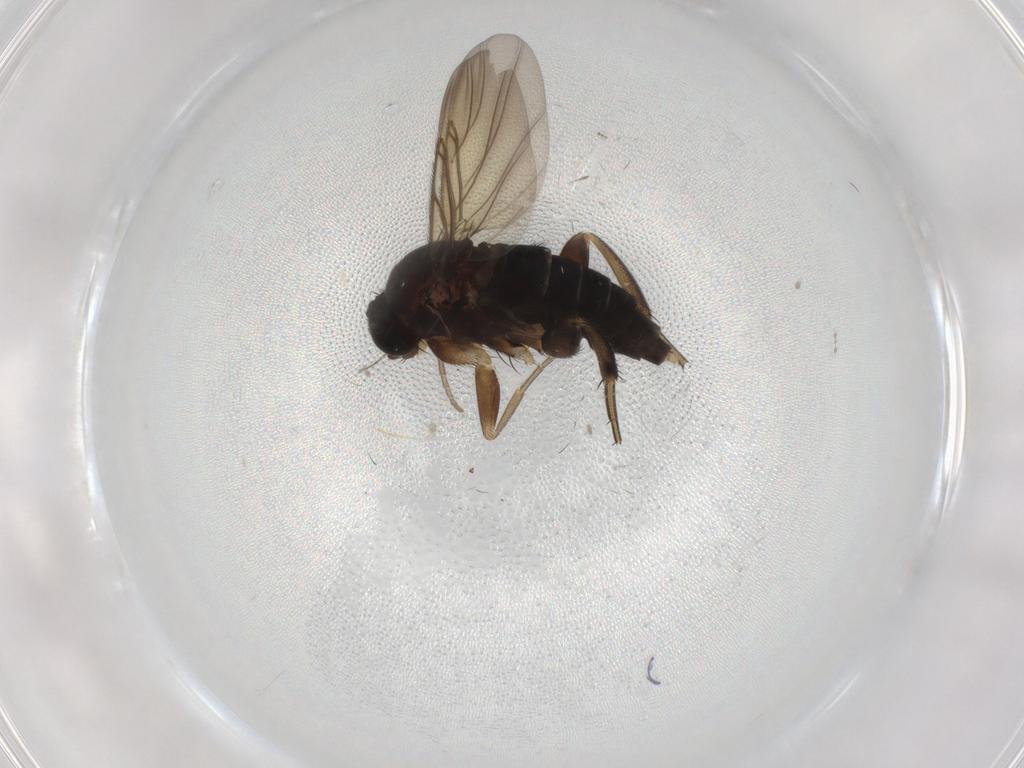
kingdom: Animalia
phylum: Arthropoda
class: Insecta
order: Diptera
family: Phoridae
